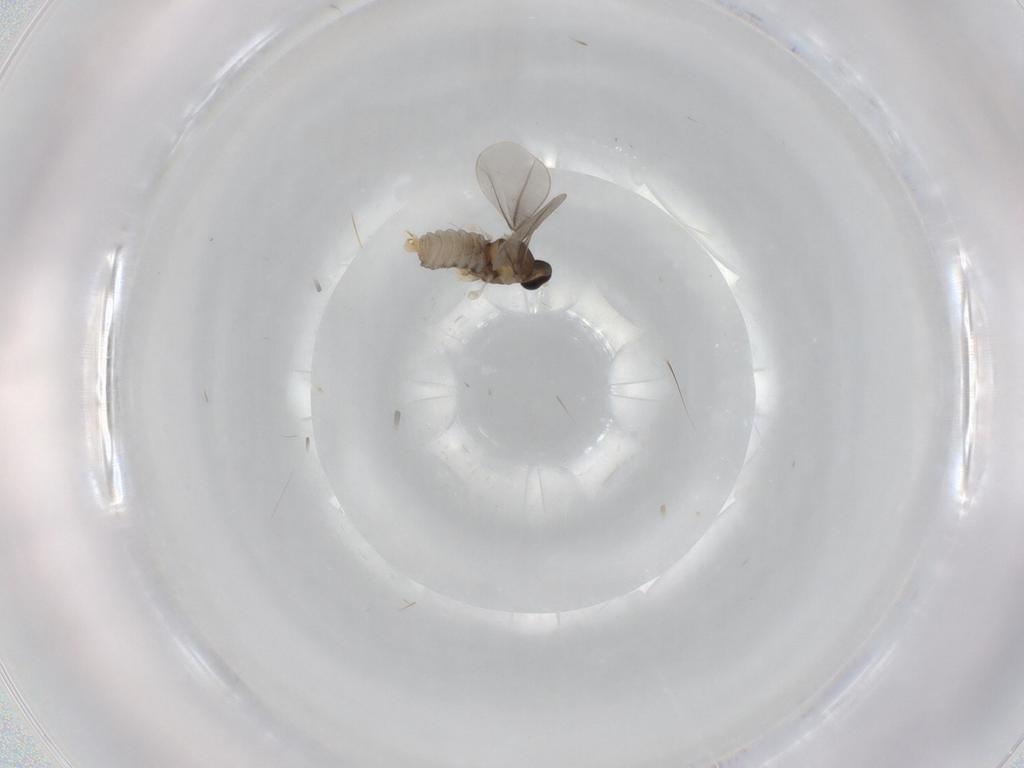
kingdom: Animalia
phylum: Arthropoda
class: Insecta
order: Diptera
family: Cecidomyiidae
